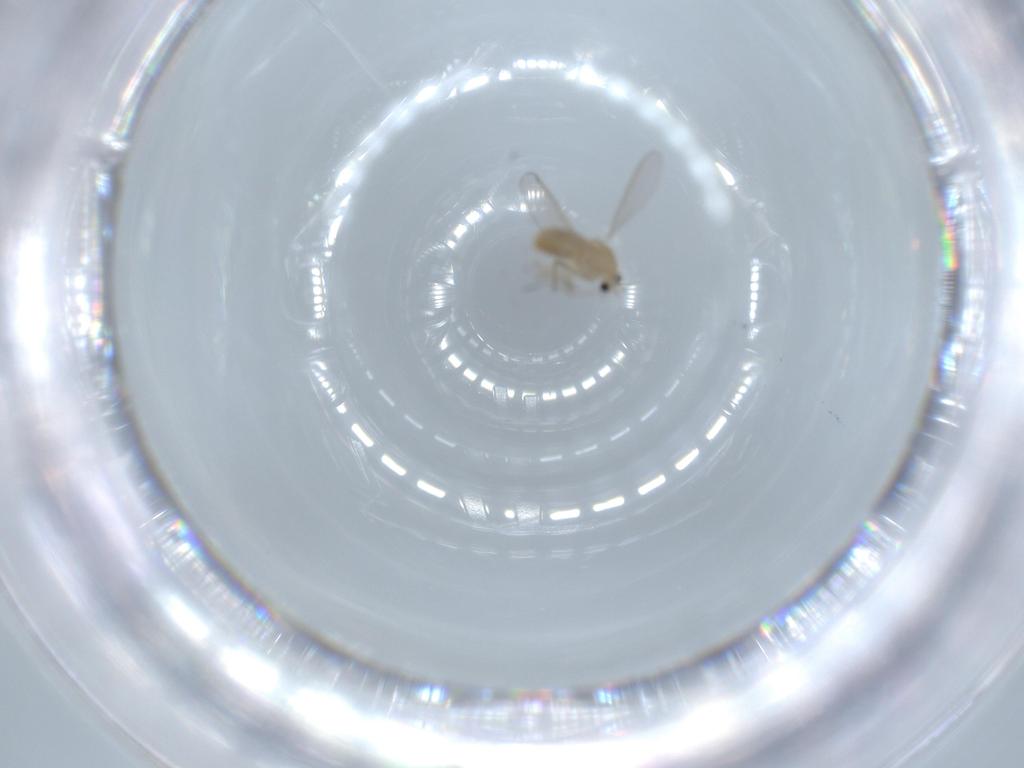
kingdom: Animalia
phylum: Arthropoda
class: Insecta
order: Diptera
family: Chironomidae
